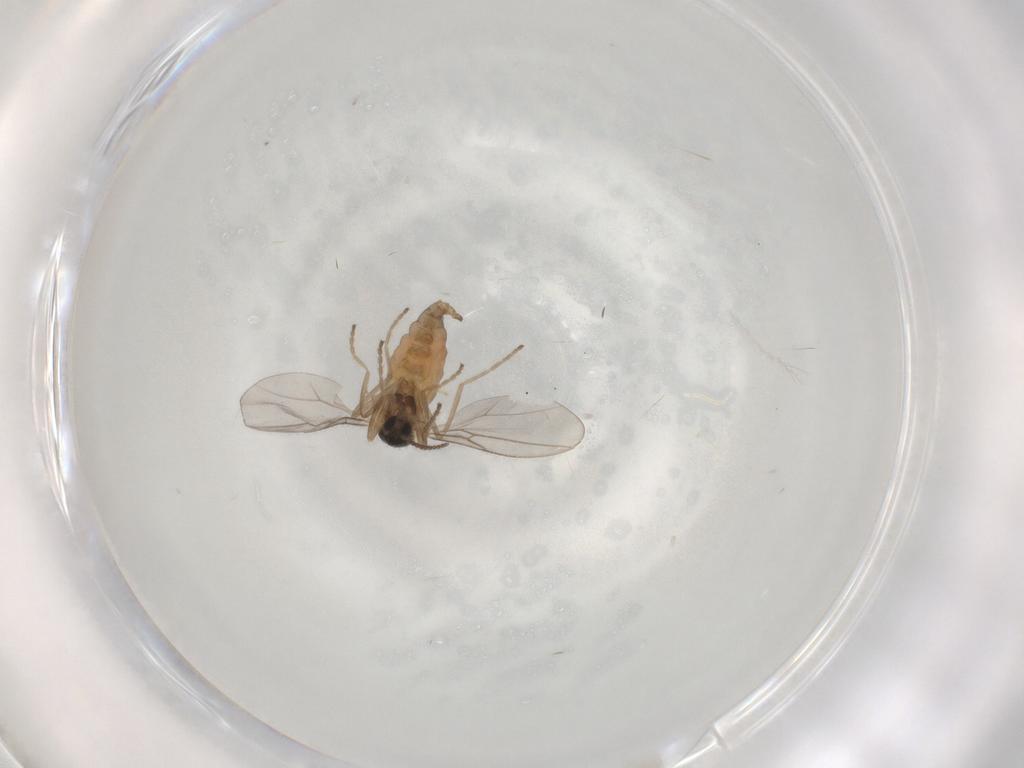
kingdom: Animalia
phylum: Arthropoda
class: Insecta
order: Diptera
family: Cecidomyiidae
